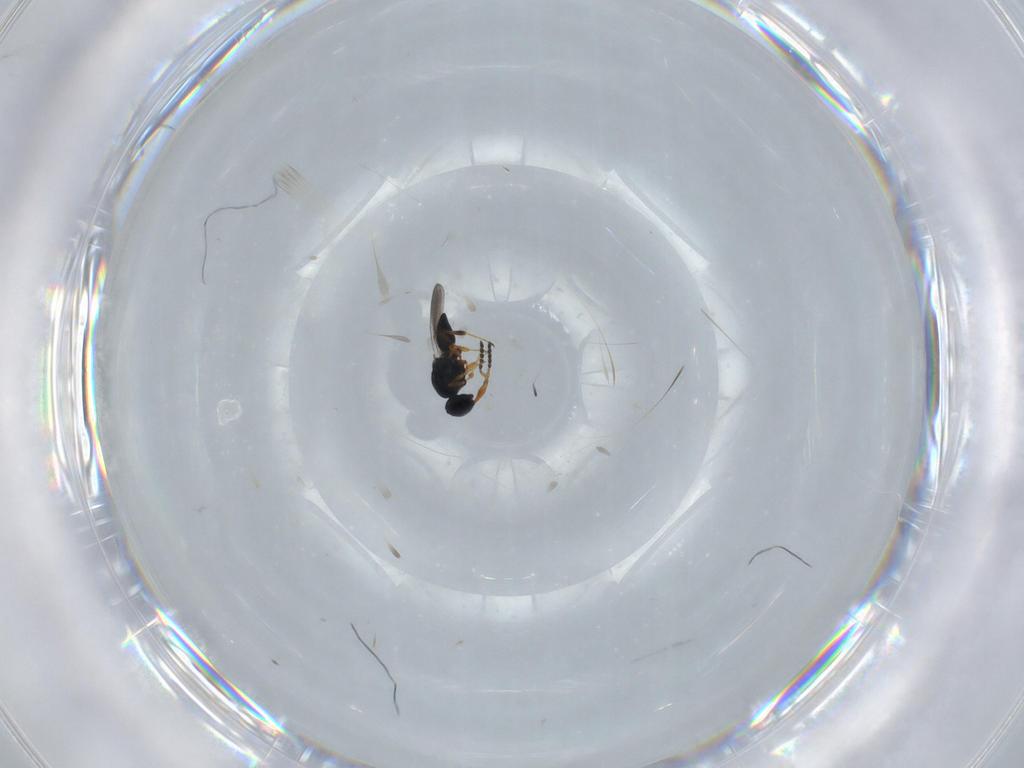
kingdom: Animalia
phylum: Arthropoda
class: Insecta
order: Hymenoptera
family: Platygastridae
